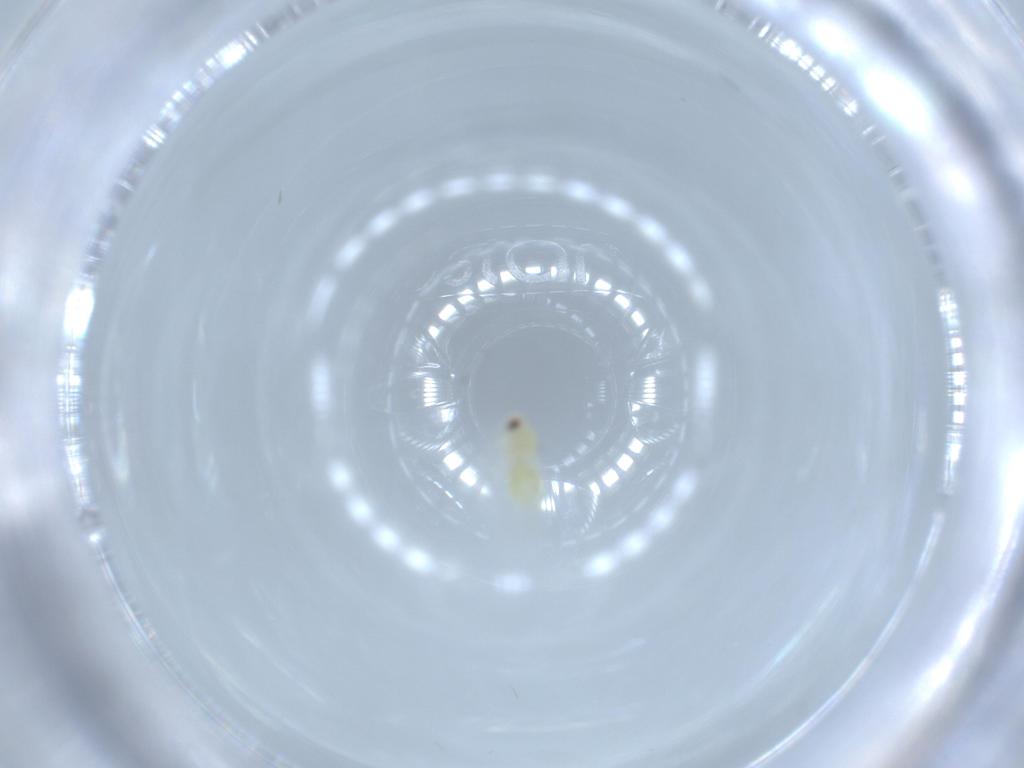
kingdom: Animalia
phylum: Arthropoda
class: Insecta
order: Hemiptera
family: Aleyrodidae
